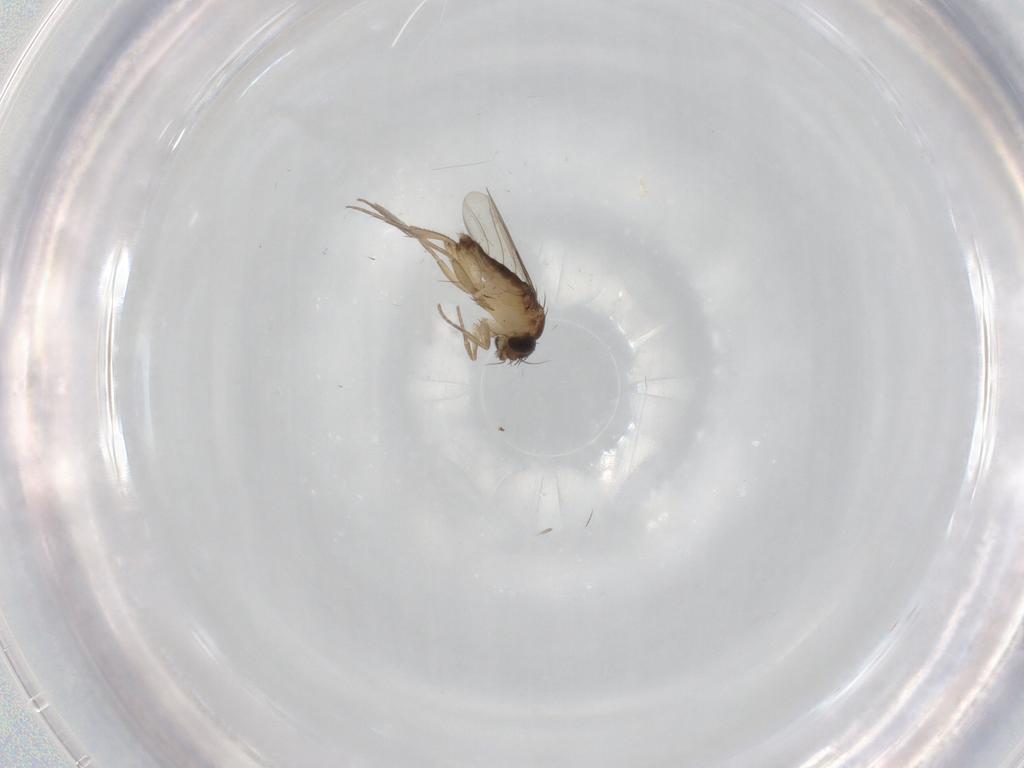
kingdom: Animalia
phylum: Arthropoda
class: Insecta
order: Diptera
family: Phoridae
